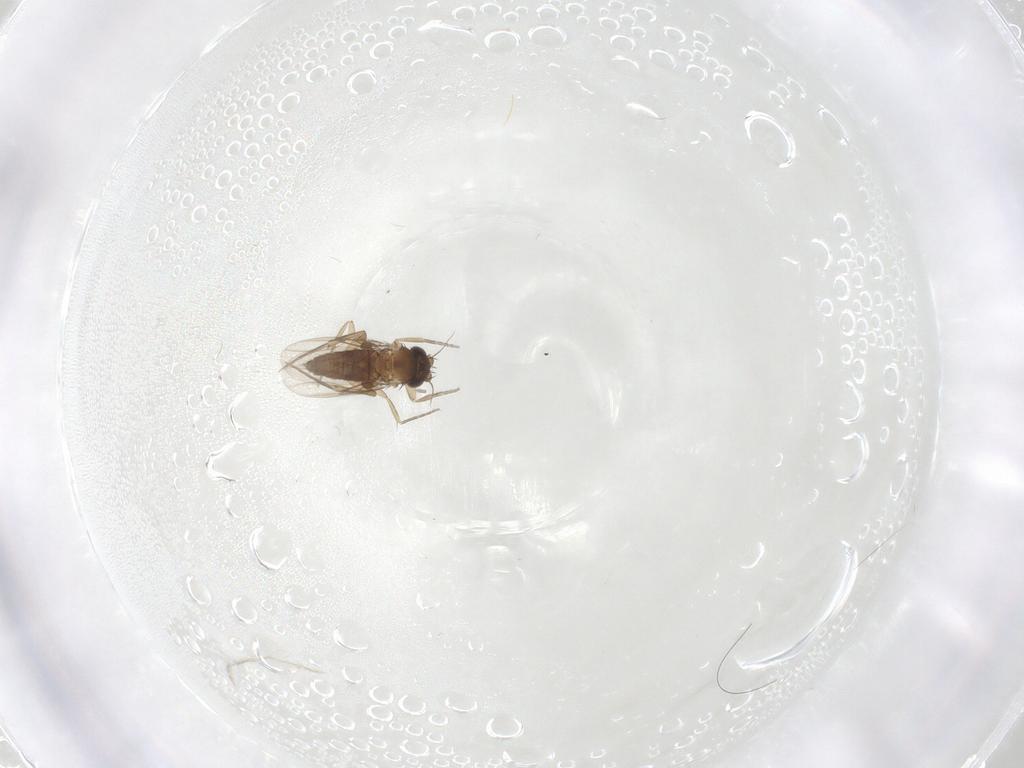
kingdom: Animalia
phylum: Arthropoda
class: Insecta
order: Diptera
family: Phoridae
